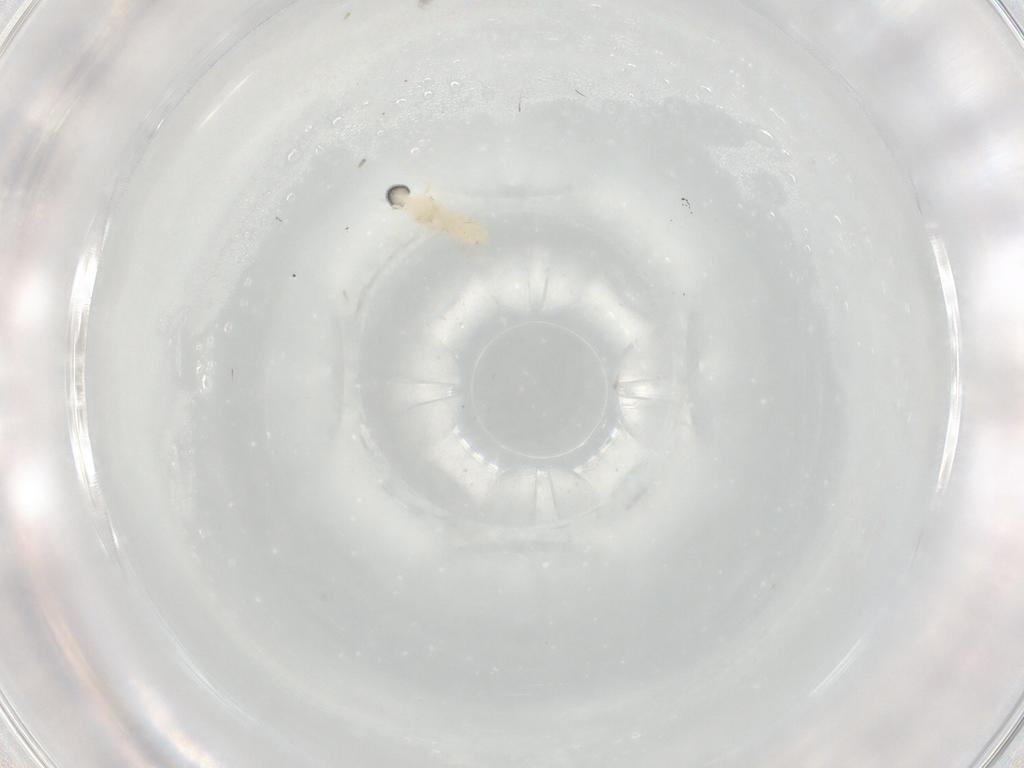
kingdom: Animalia
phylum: Arthropoda
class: Insecta
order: Diptera
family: Cecidomyiidae
